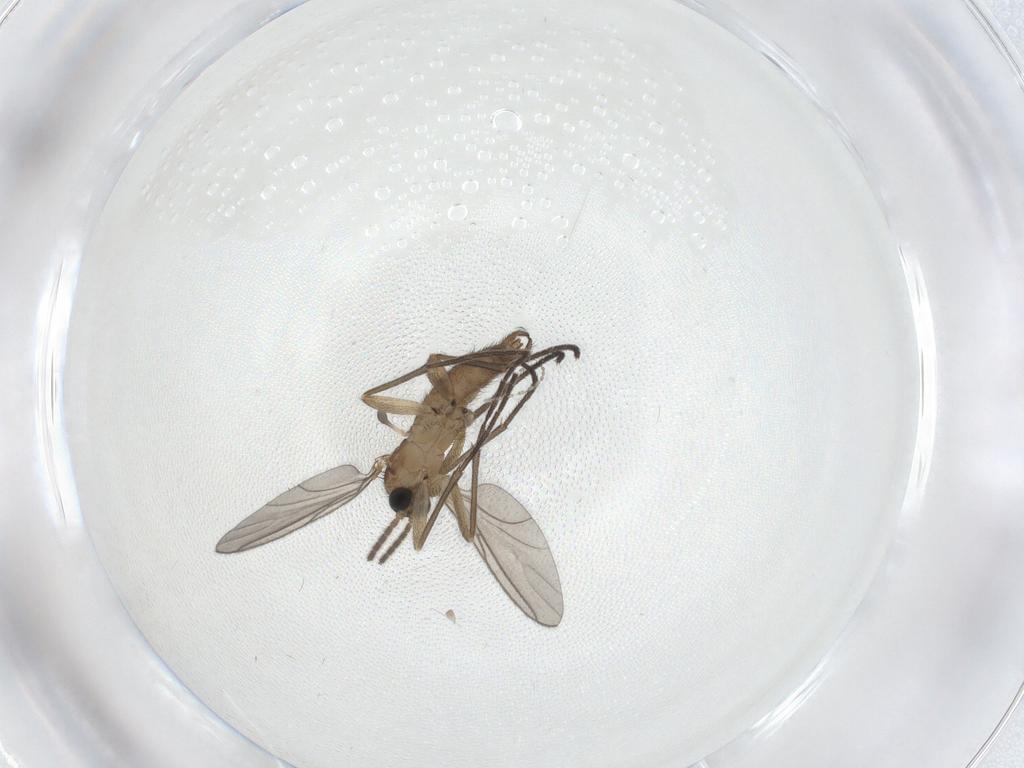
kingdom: Animalia
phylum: Arthropoda
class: Insecta
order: Diptera
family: Sciaridae
